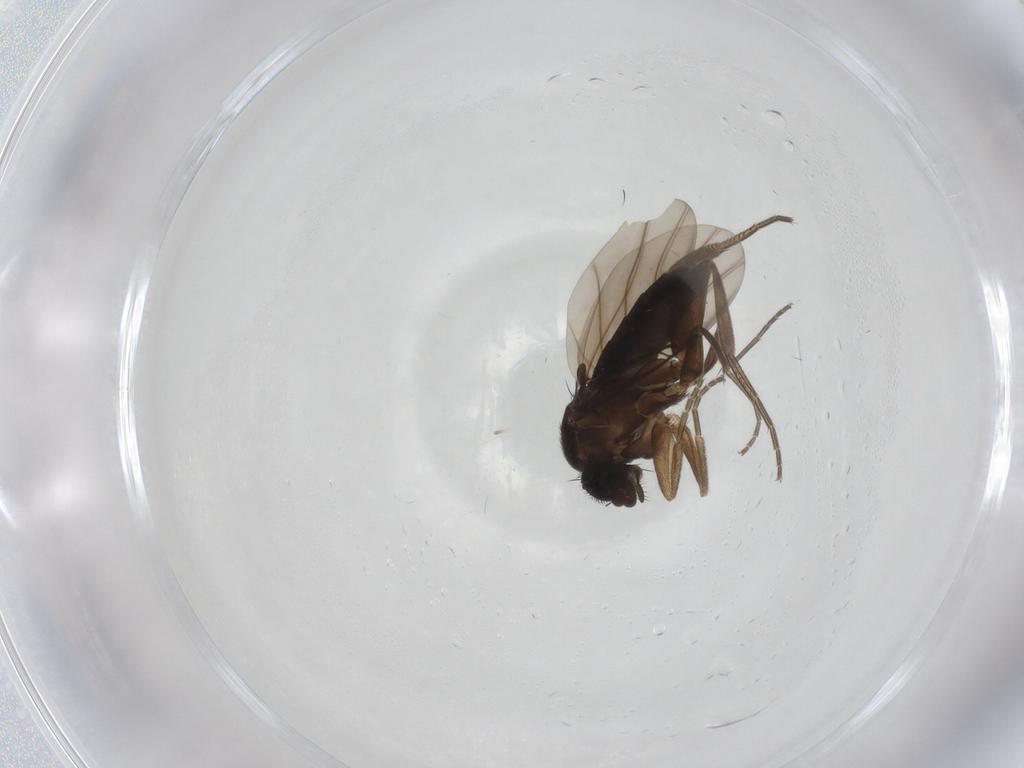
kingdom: Animalia
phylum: Arthropoda
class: Insecta
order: Diptera
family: Phoridae
